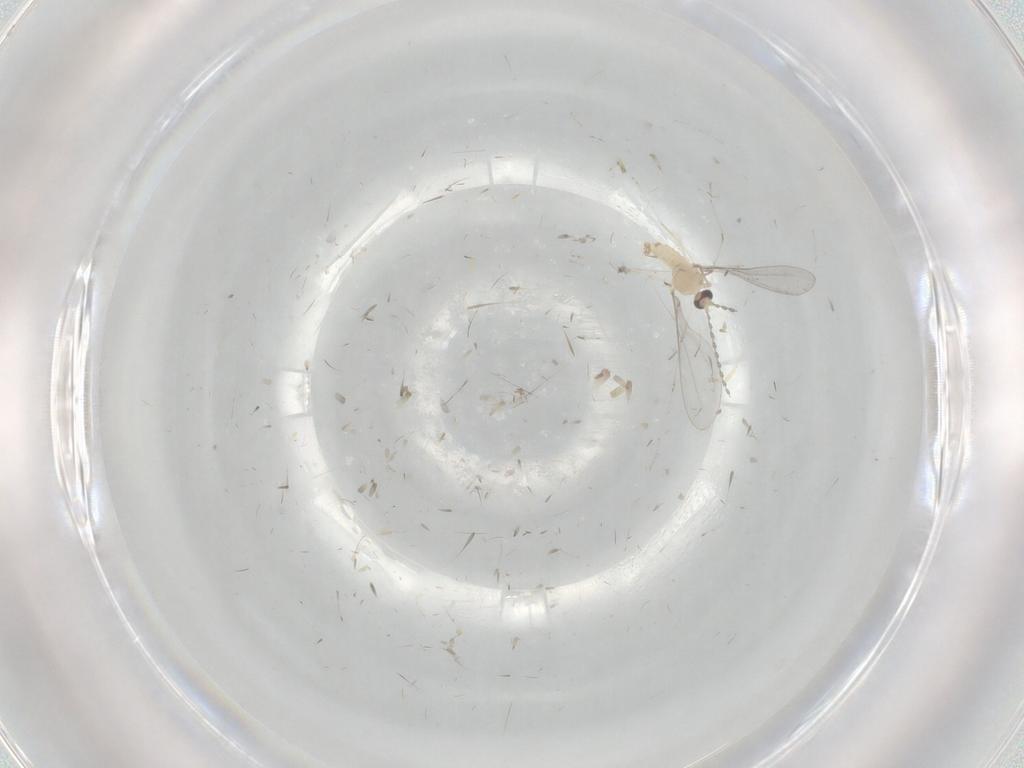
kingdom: Animalia
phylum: Arthropoda
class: Insecta
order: Diptera
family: Cecidomyiidae
